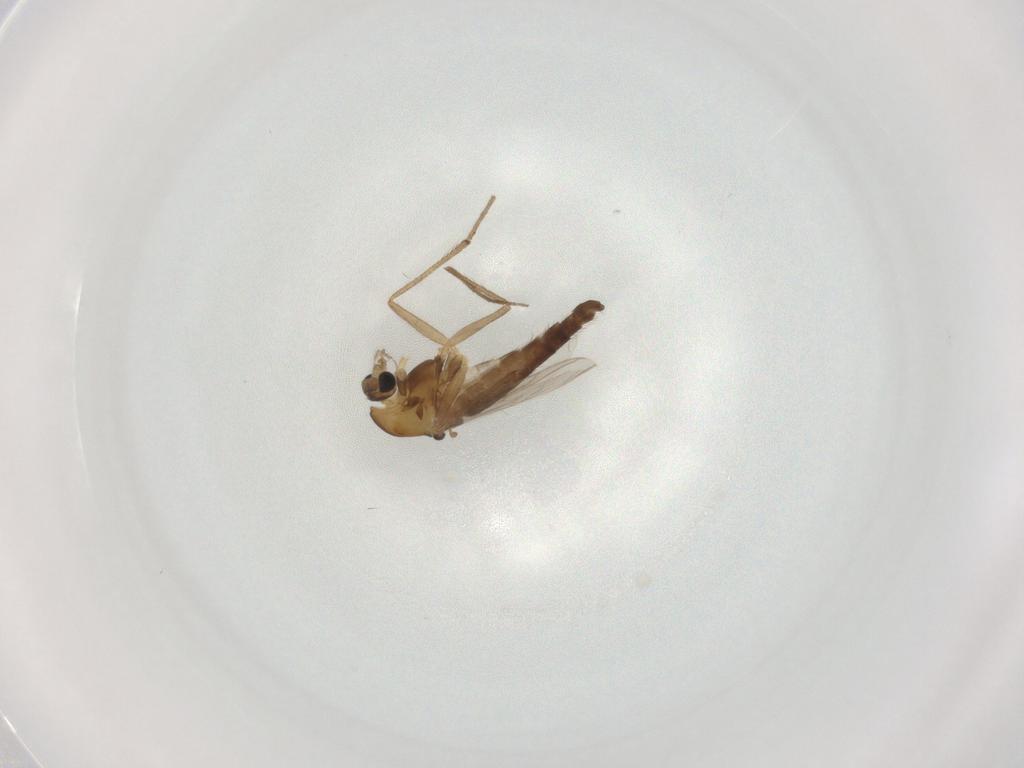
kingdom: Animalia
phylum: Arthropoda
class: Insecta
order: Diptera
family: Chironomidae
